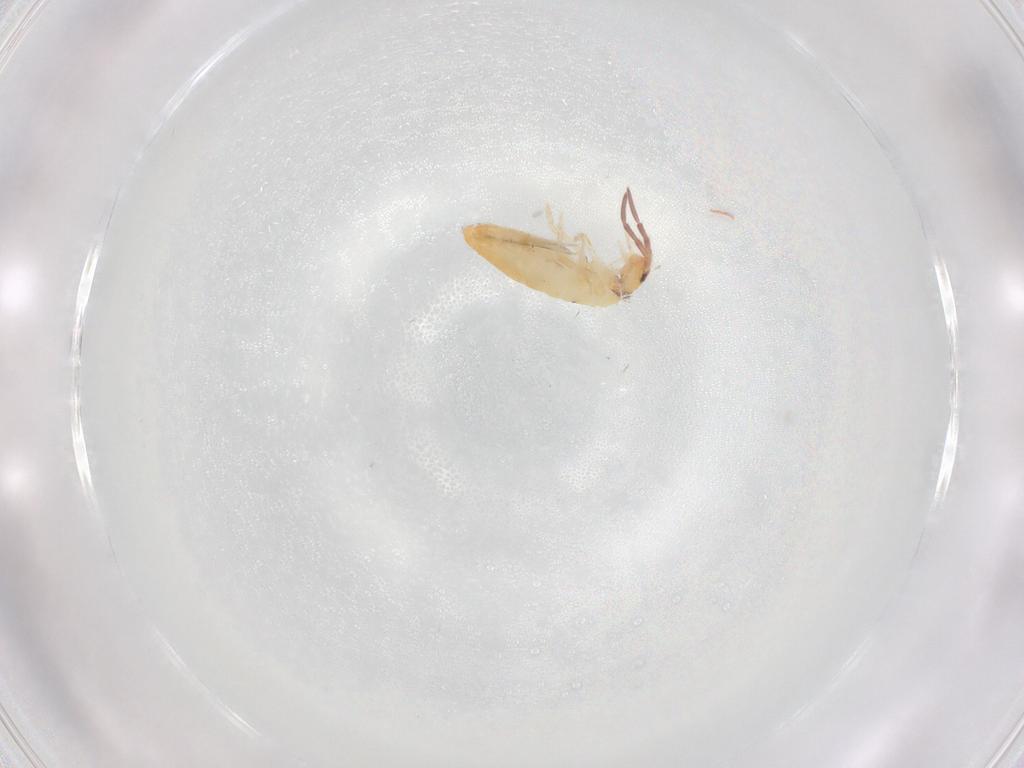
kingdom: Animalia
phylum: Arthropoda
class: Collembola
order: Entomobryomorpha
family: Entomobryidae
